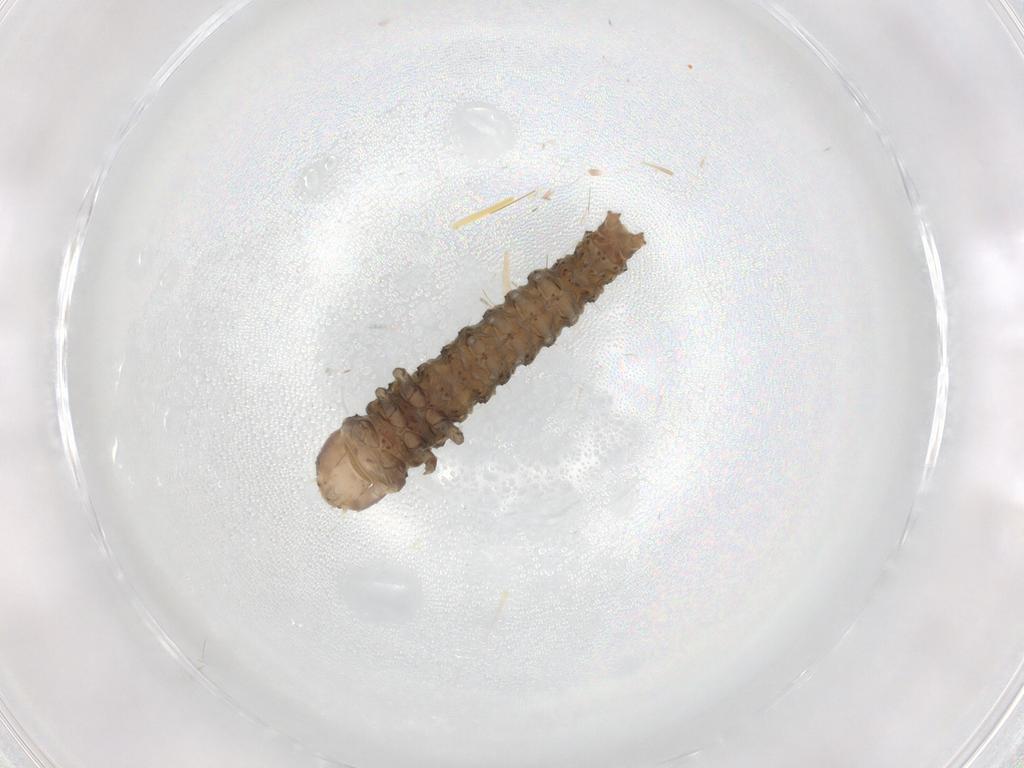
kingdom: Animalia
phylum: Arthropoda
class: Insecta
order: Lepidoptera
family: Choreutidae
